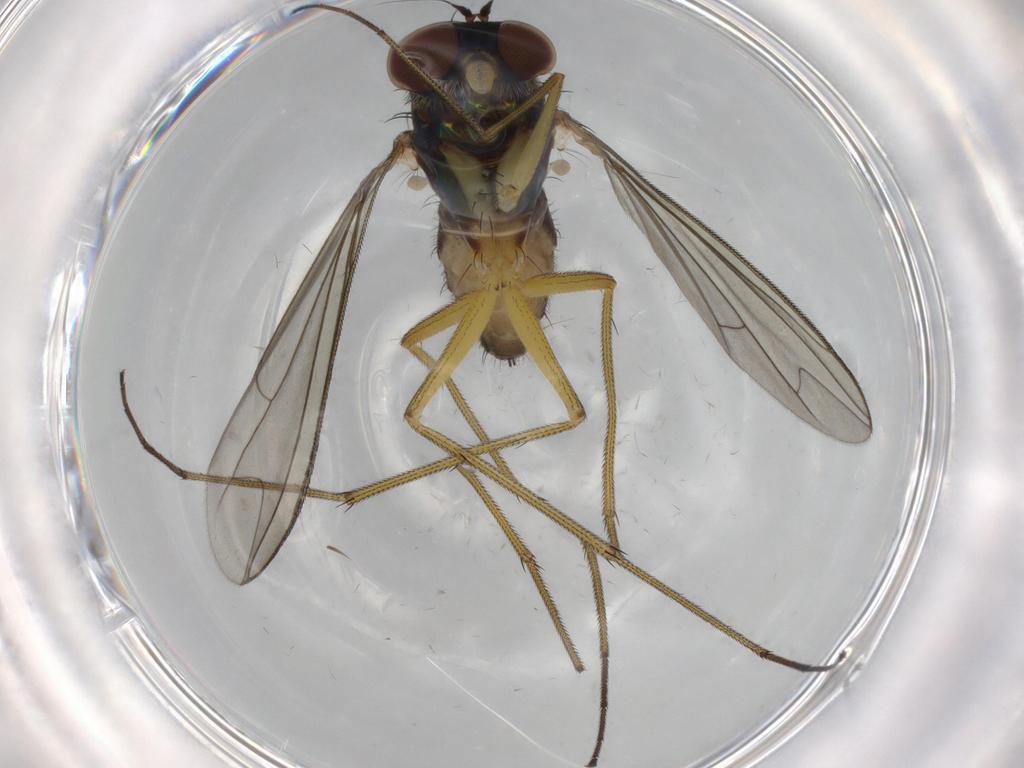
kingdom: Animalia
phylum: Arthropoda
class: Insecta
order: Diptera
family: Dolichopodidae
